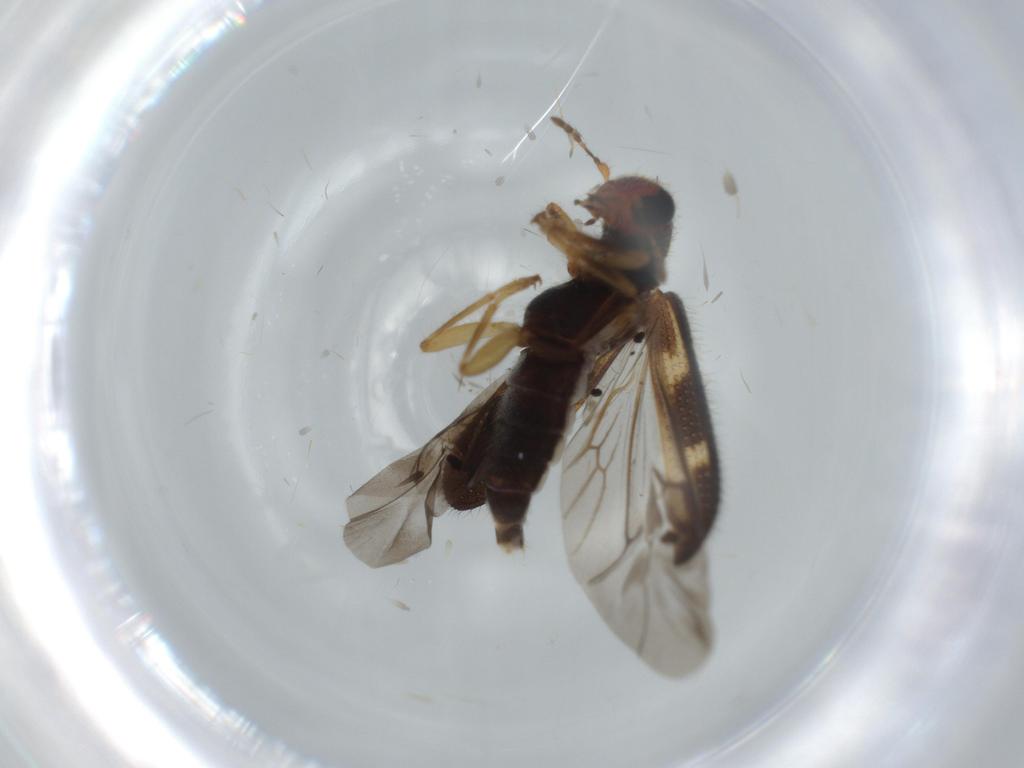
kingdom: Animalia
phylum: Arthropoda
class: Insecta
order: Coleoptera
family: Cleridae
